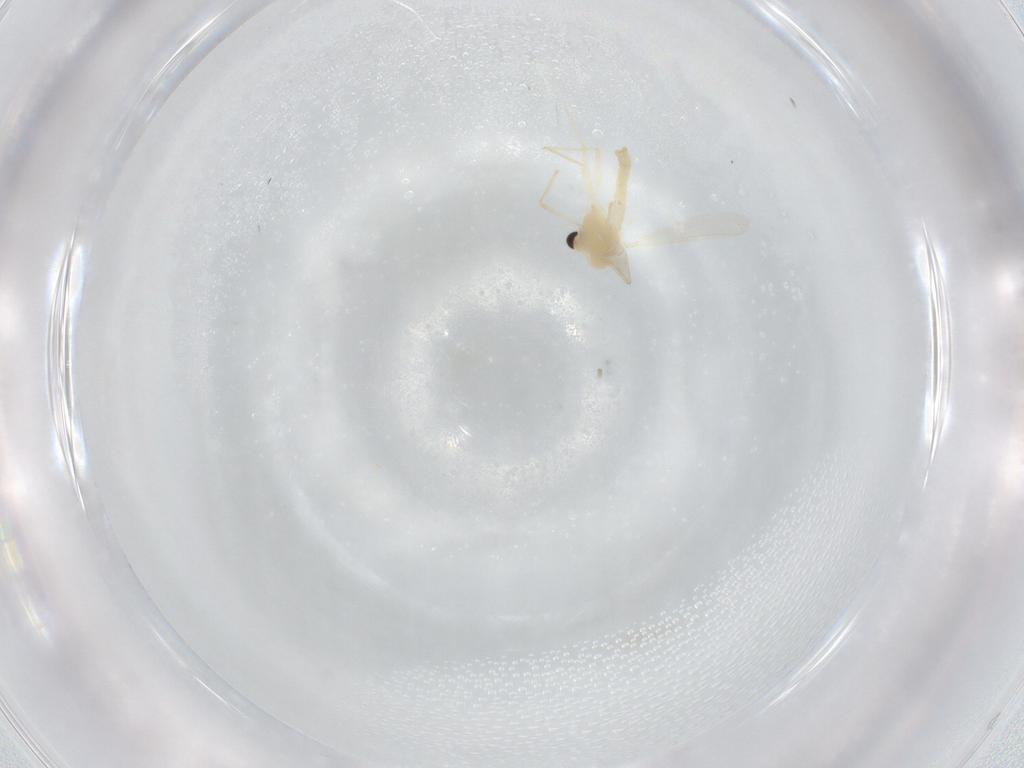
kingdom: Animalia
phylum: Arthropoda
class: Insecta
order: Diptera
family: Chironomidae
